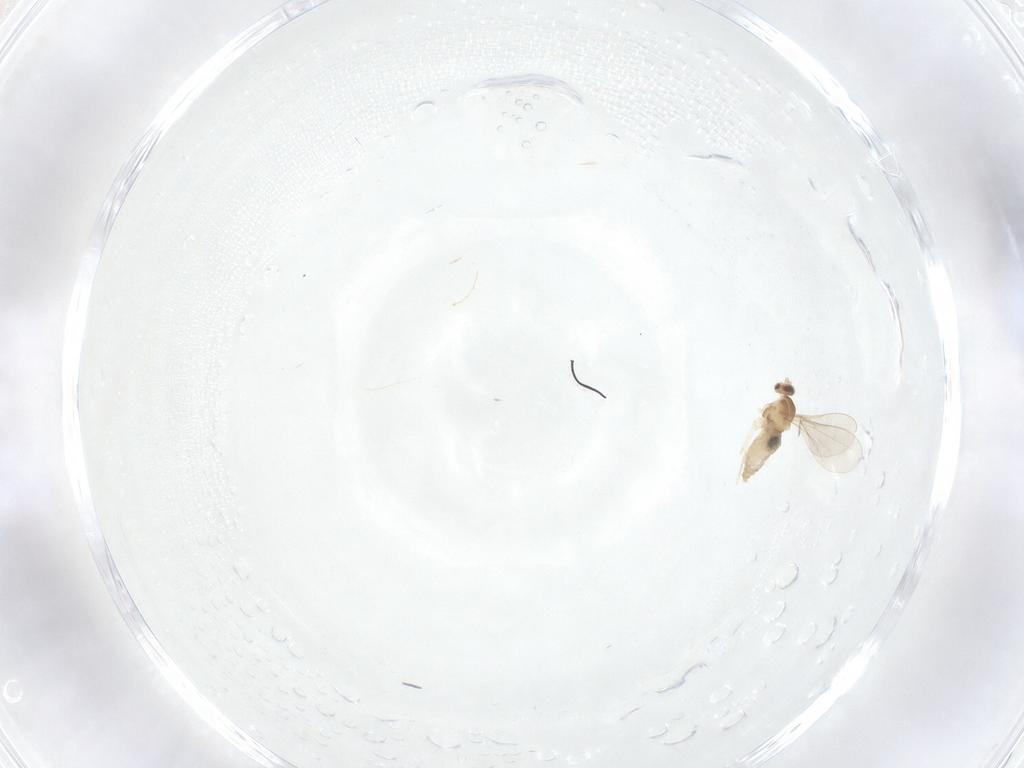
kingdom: Animalia
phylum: Arthropoda
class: Insecta
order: Diptera
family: Cecidomyiidae
